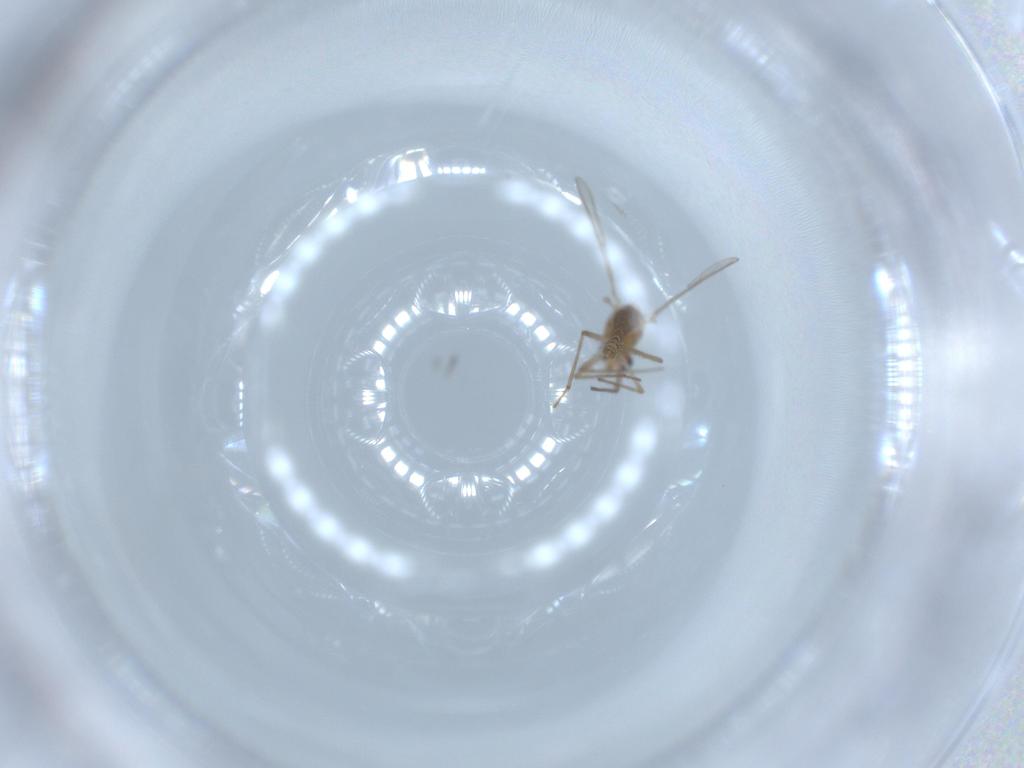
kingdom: Animalia
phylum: Arthropoda
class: Insecta
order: Diptera
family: Chironomidae
